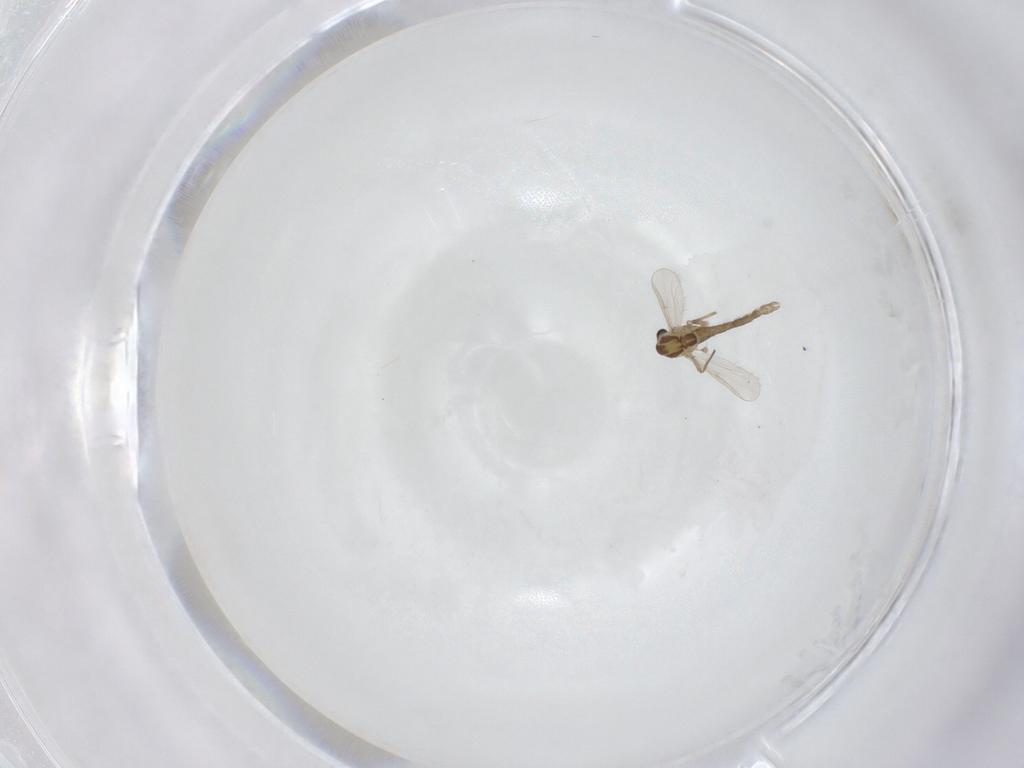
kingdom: Animalia
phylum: Arthropoda
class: Insecta
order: Diptera
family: Chironomidae
